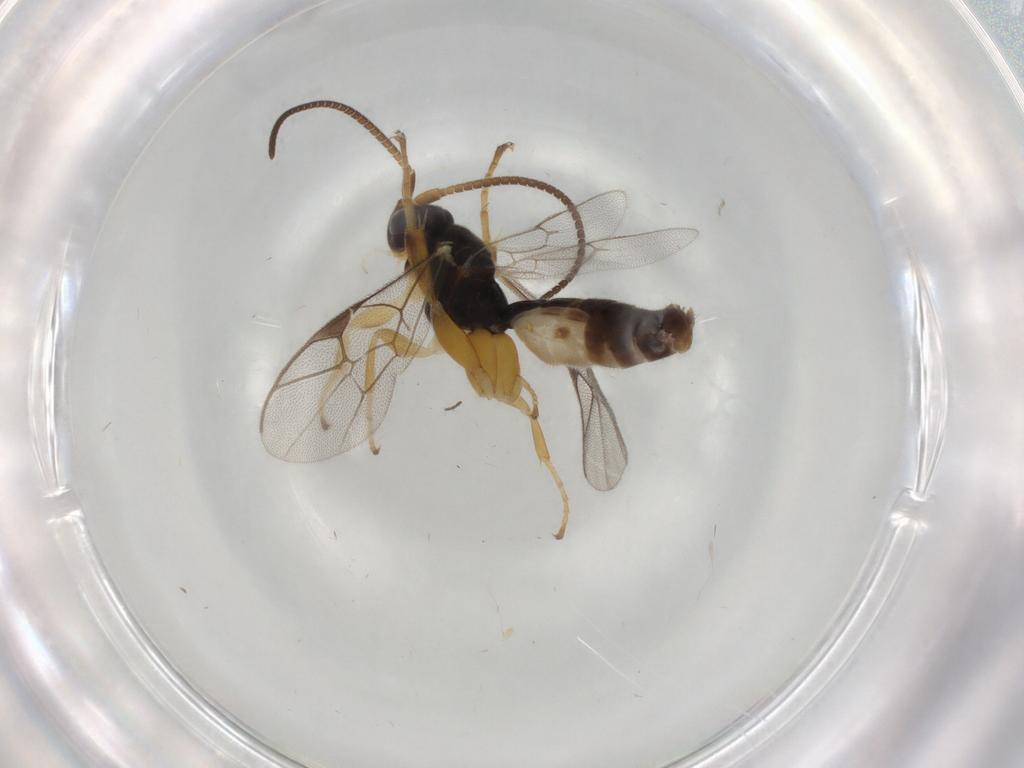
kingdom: Animalia
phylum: Arthropoda
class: Insecta
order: Hymenoptera
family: Ichneumonidae
